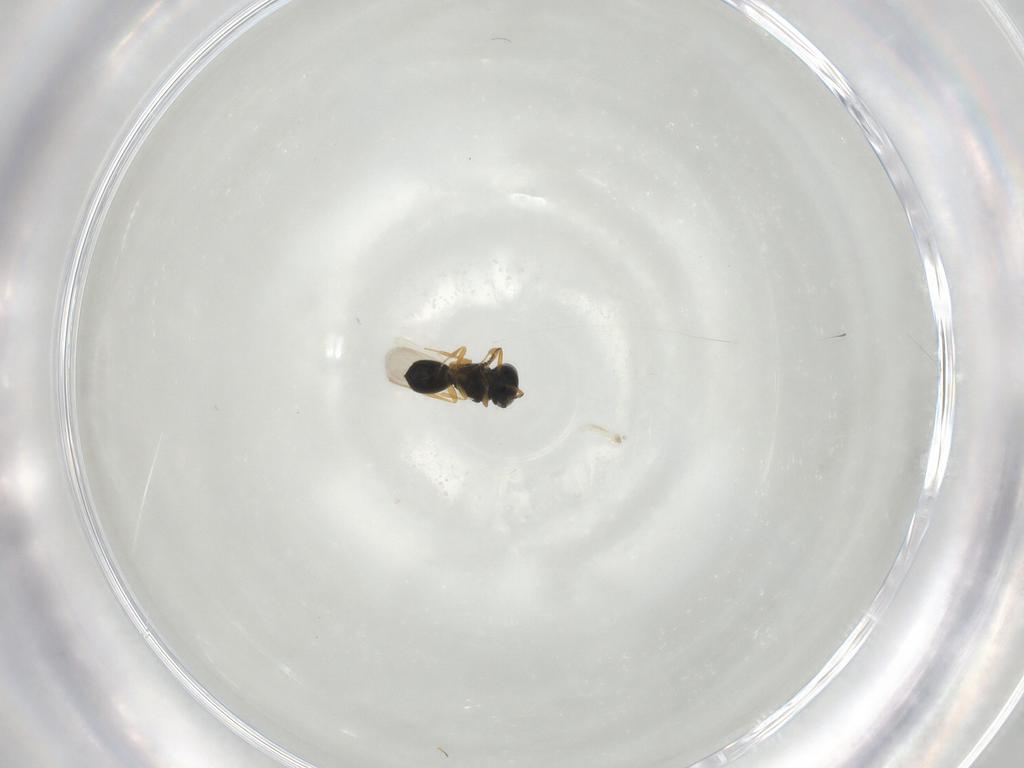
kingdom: Animalia
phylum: Arthropoda
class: Insecta
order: Hymenoptera
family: Scelionidae
